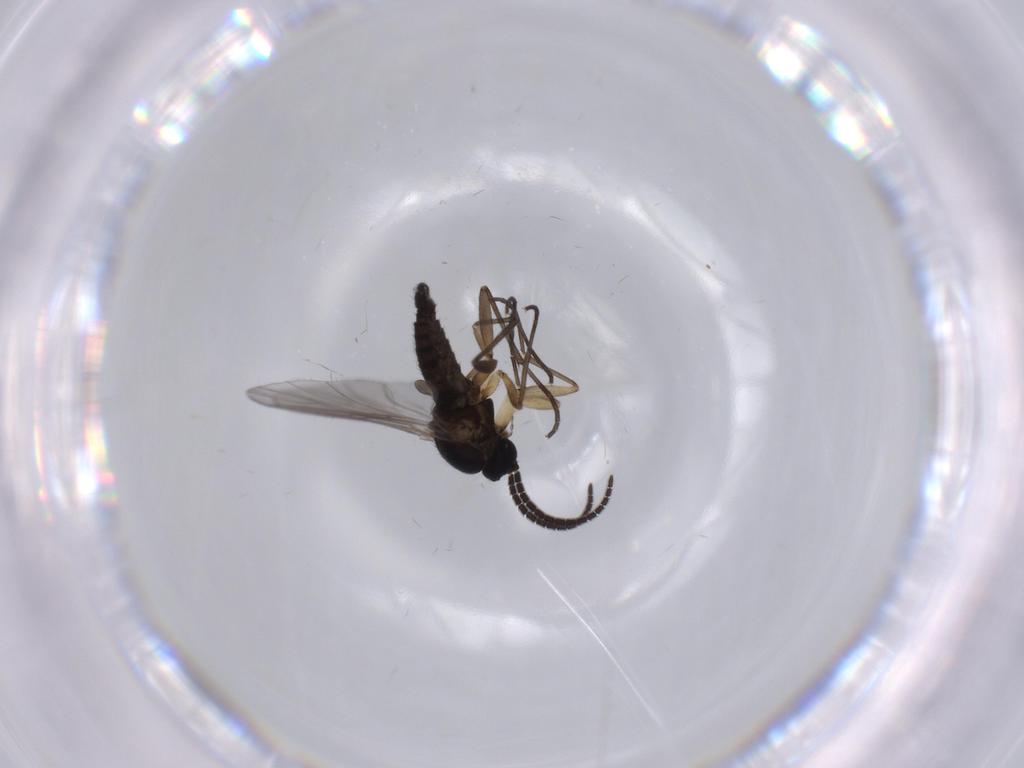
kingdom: Animalia
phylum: Arthropoda
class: Insecta
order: Diptera
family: Sciaridae
